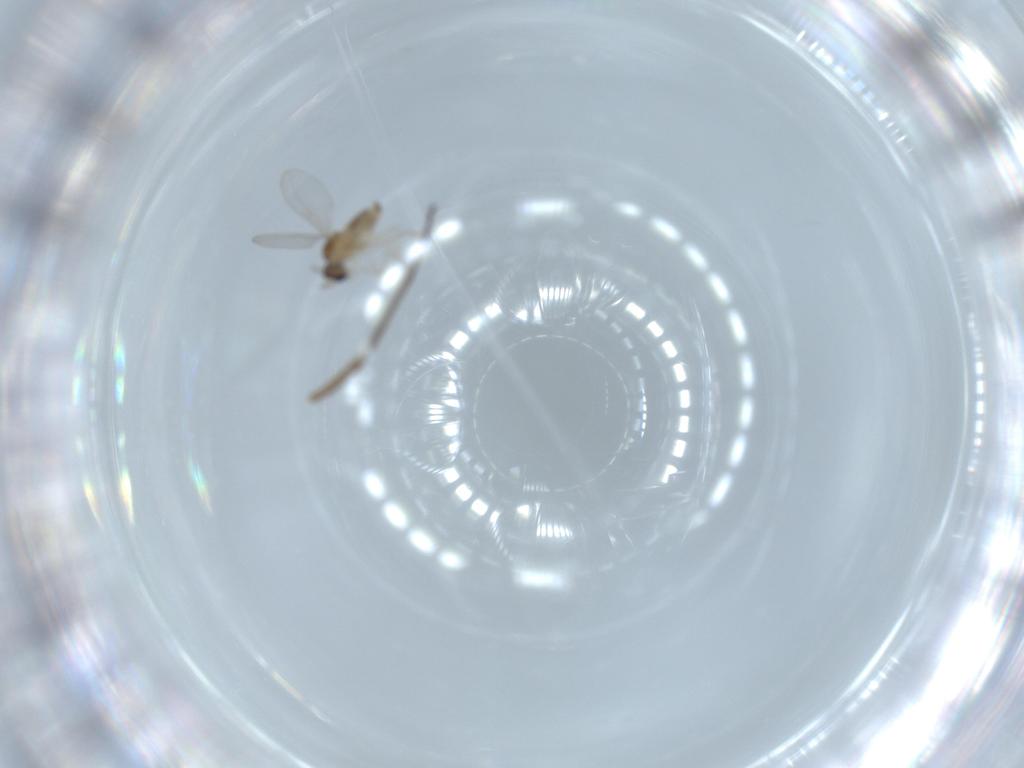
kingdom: Animalia
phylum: Arthropoda
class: Insecta
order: Diptera
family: Sciaridae
